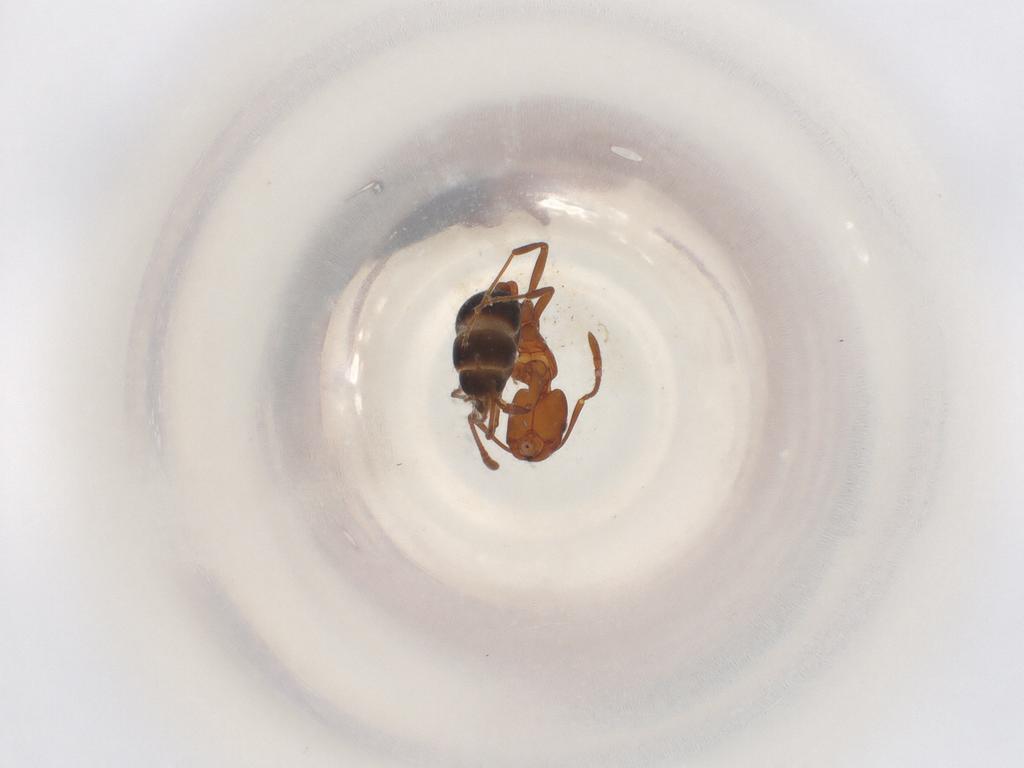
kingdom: Animalia
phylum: Arthropoda
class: Insecta
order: Hymenoptera
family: Formicidae
